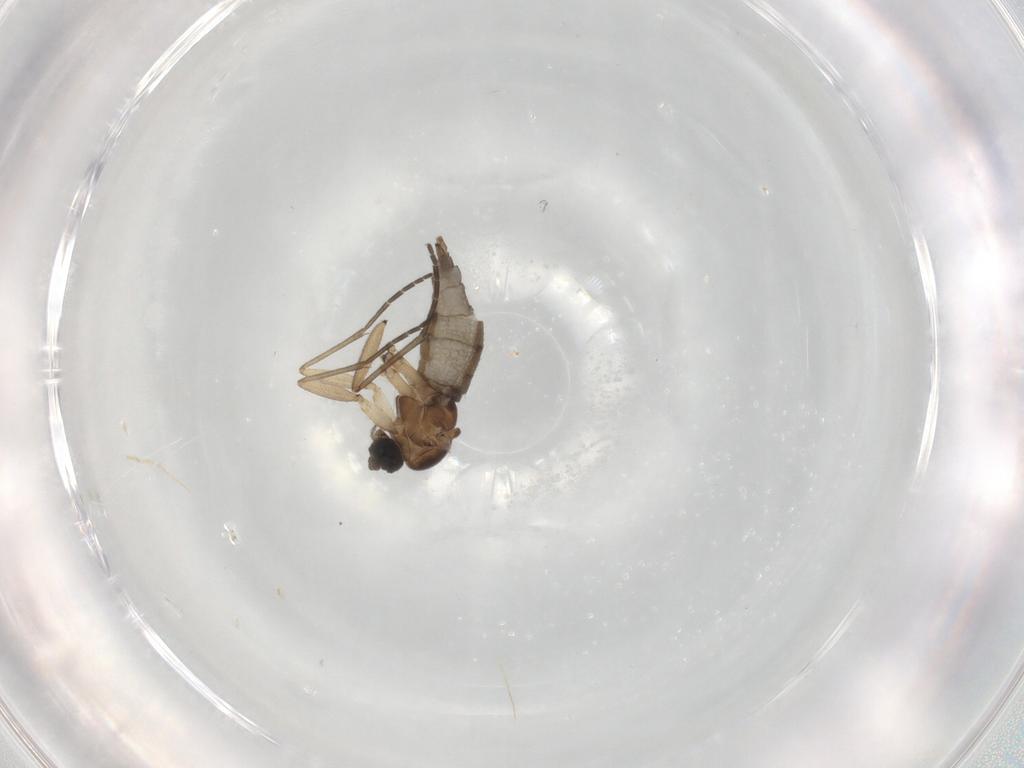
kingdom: Animalia
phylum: Arthropoda
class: Insecta
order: Diptera
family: Sciaridae
